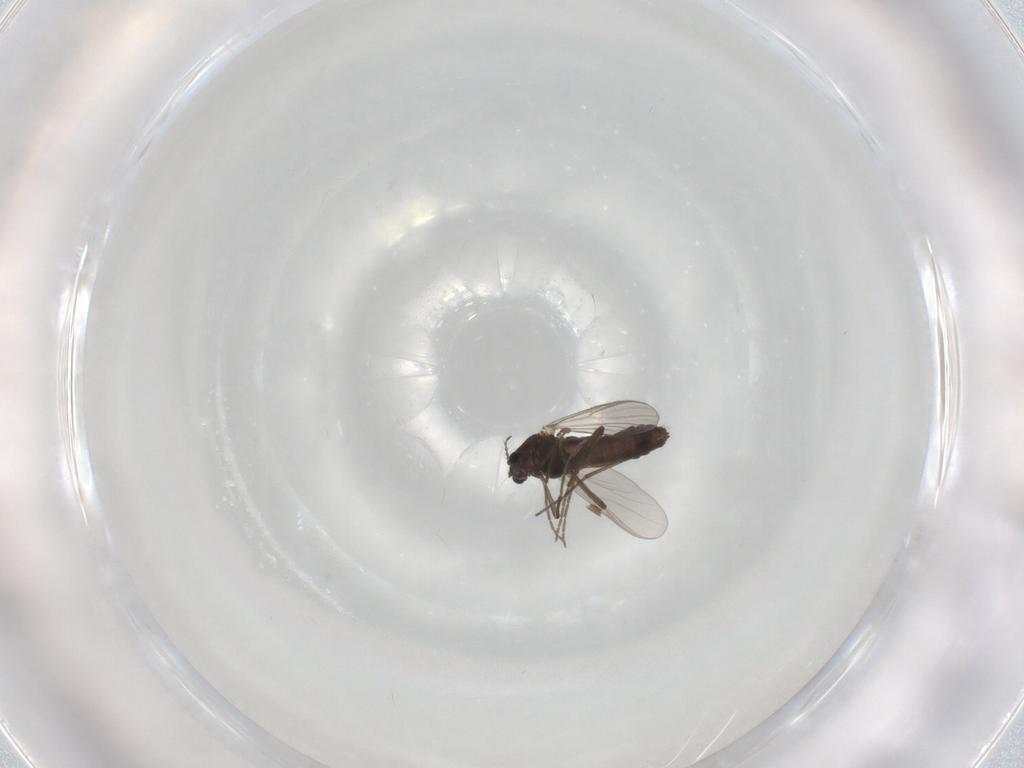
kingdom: Animalia
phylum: Arthropoda
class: Insecta
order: Diptera
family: Chironomidae
